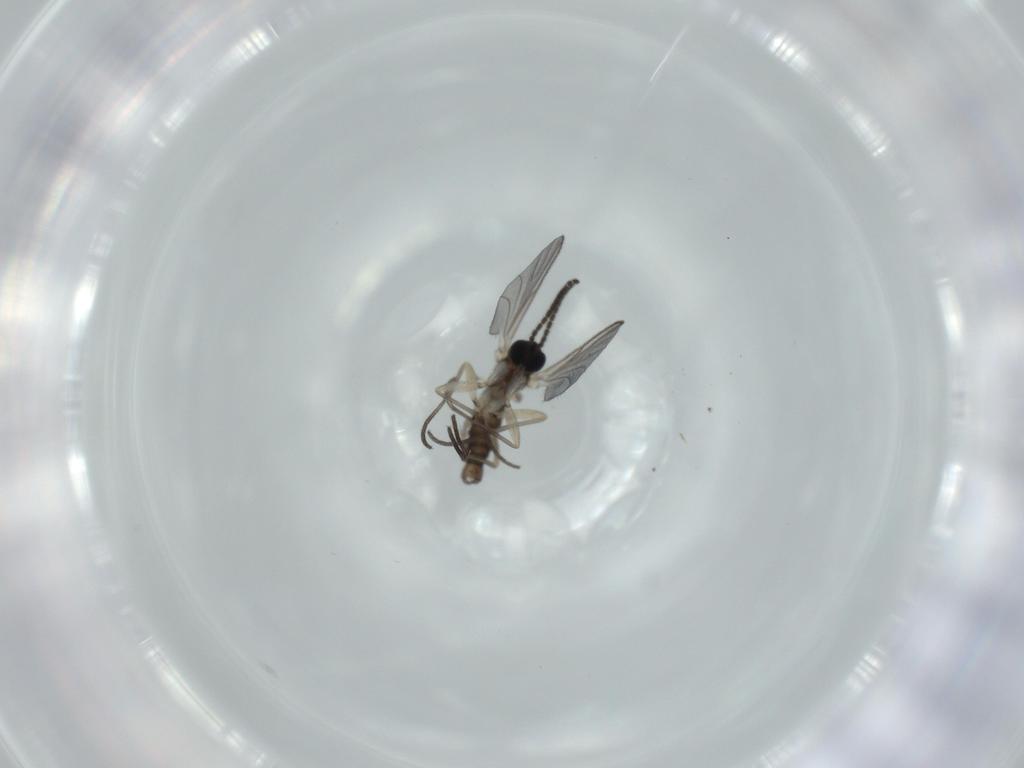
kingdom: Animalia
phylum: Arthropoda
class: Insecta
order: Diptera
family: Sciaridae
